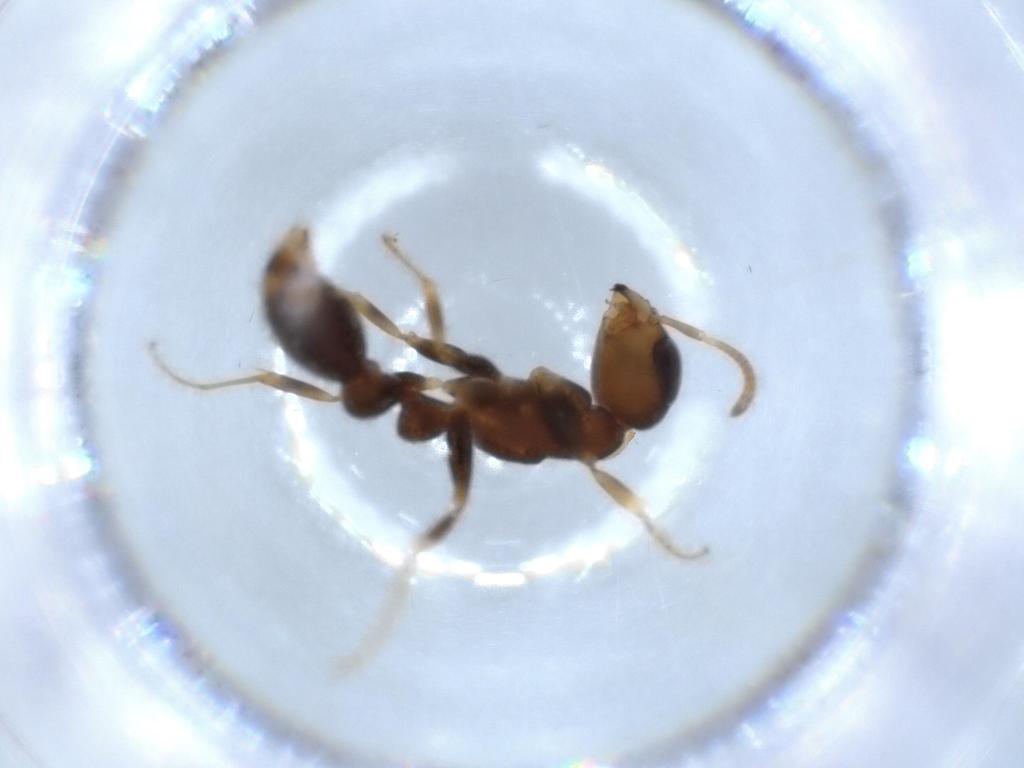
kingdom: Animalia
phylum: Arthropoda
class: Insecta
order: Hymenoptera
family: Formicidae
